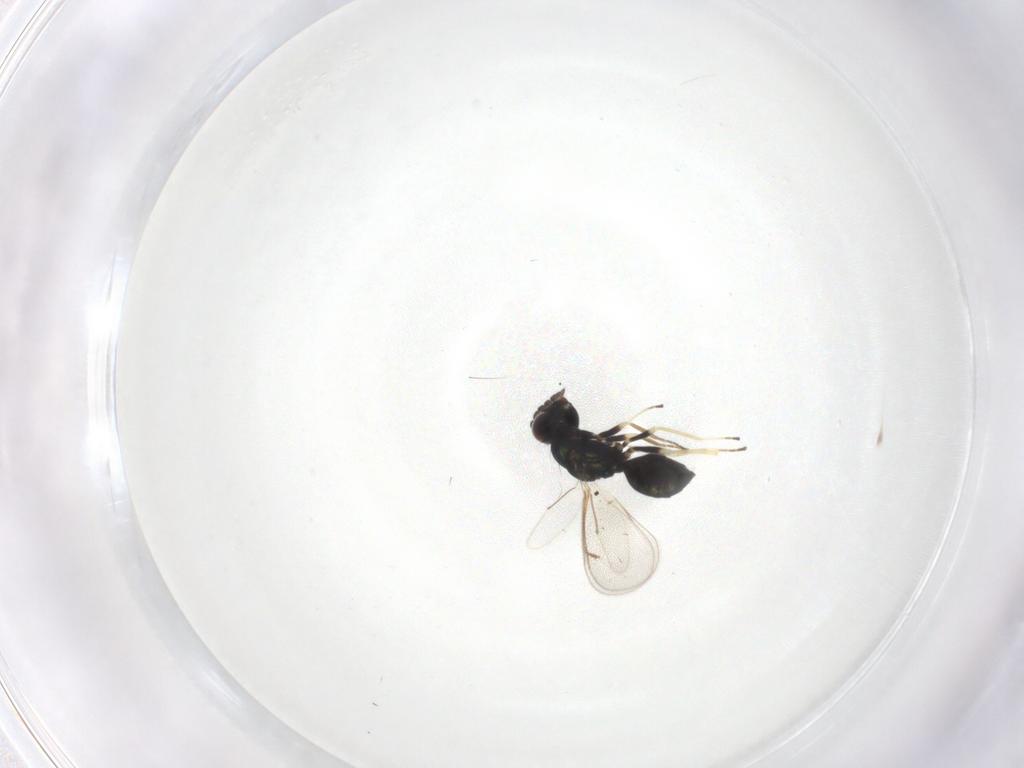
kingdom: Animalia
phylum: Arthropoda
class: Insecta
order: Hymenoptera
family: Eulophidae
